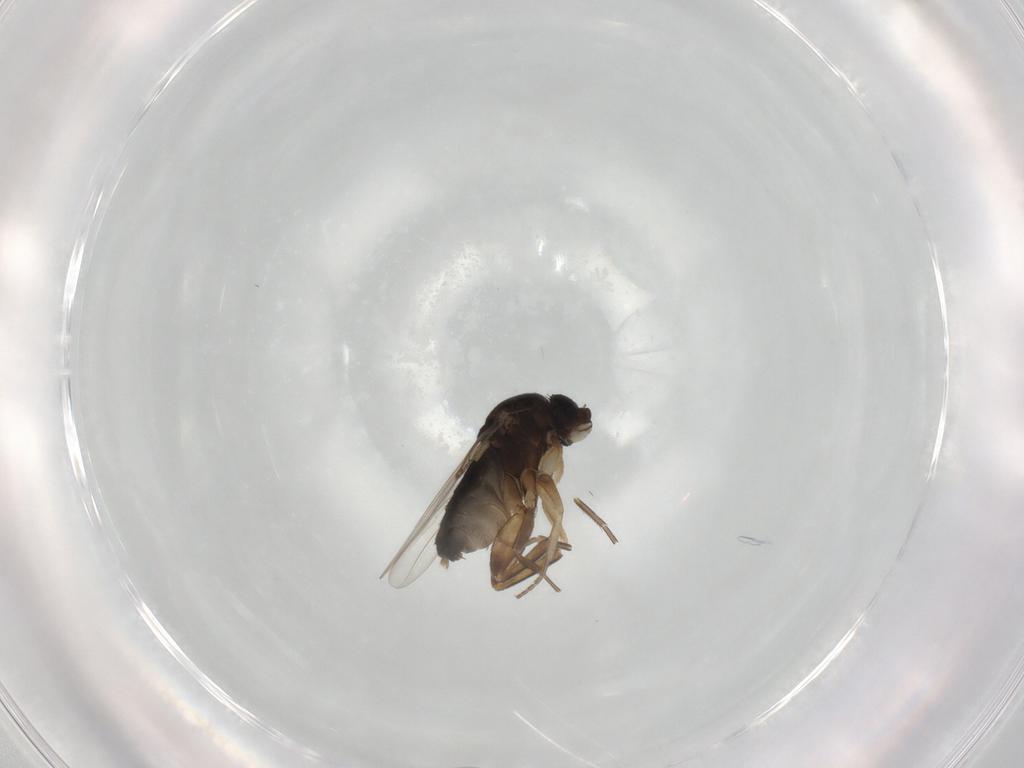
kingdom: Animalia
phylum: Arthropoda
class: Insecta
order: Diptera
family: Phoridae
